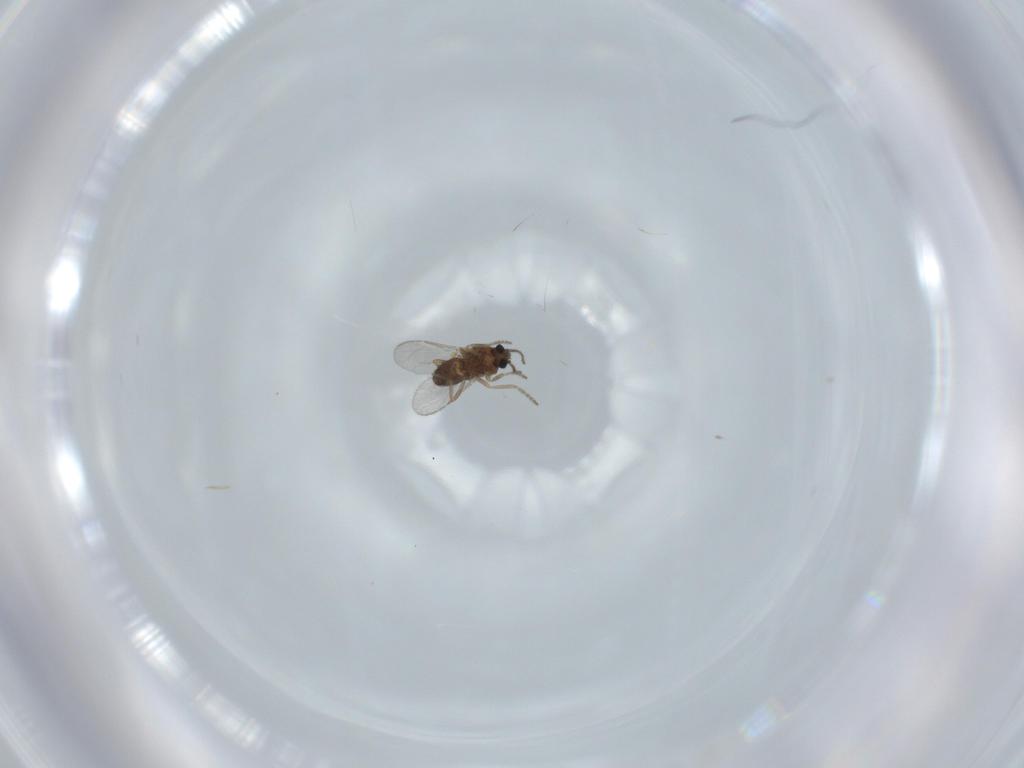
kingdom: Animalia
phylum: Arthropoda
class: Insecta
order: Diptera
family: Ceratopogonidae
